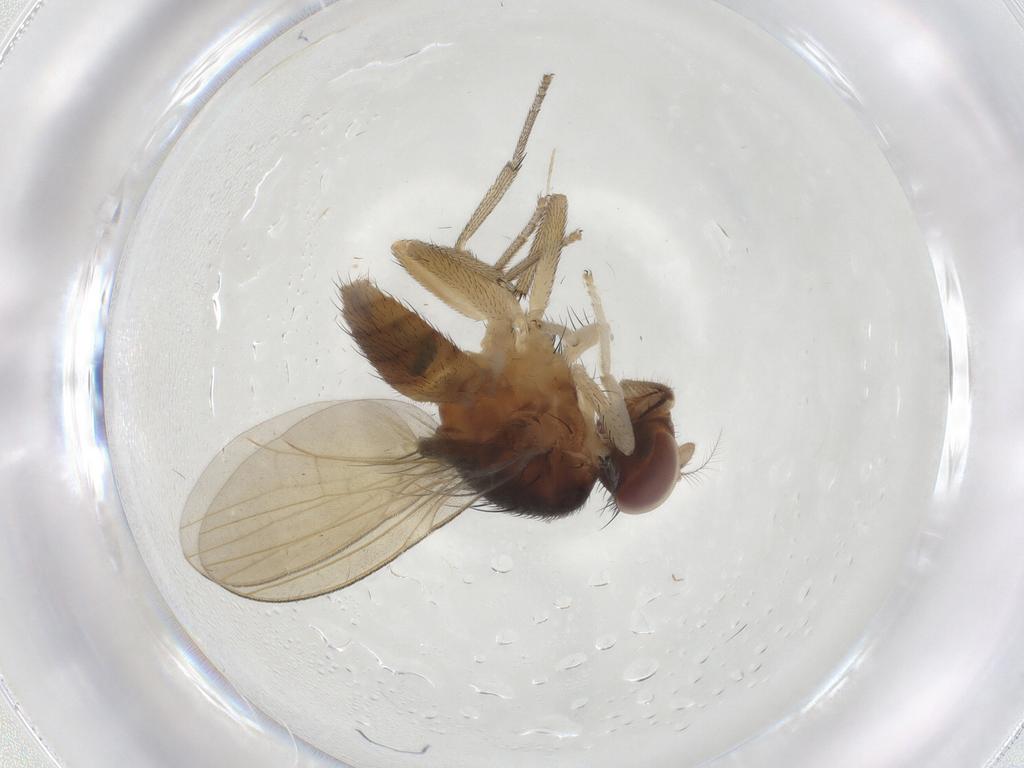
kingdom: Animalia
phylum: Arthropoda
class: Insecta
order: Diptera
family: Lauxaniidae
